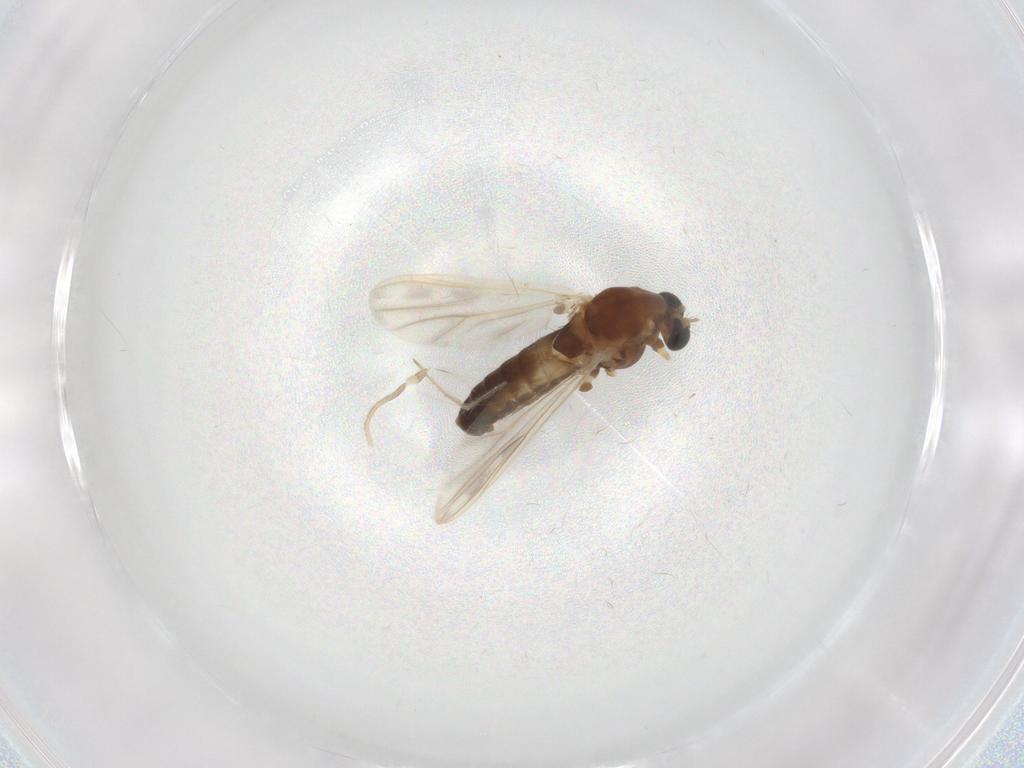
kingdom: Animalia
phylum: Arthropoda
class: Insecta
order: Diptera
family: Chironomidae
